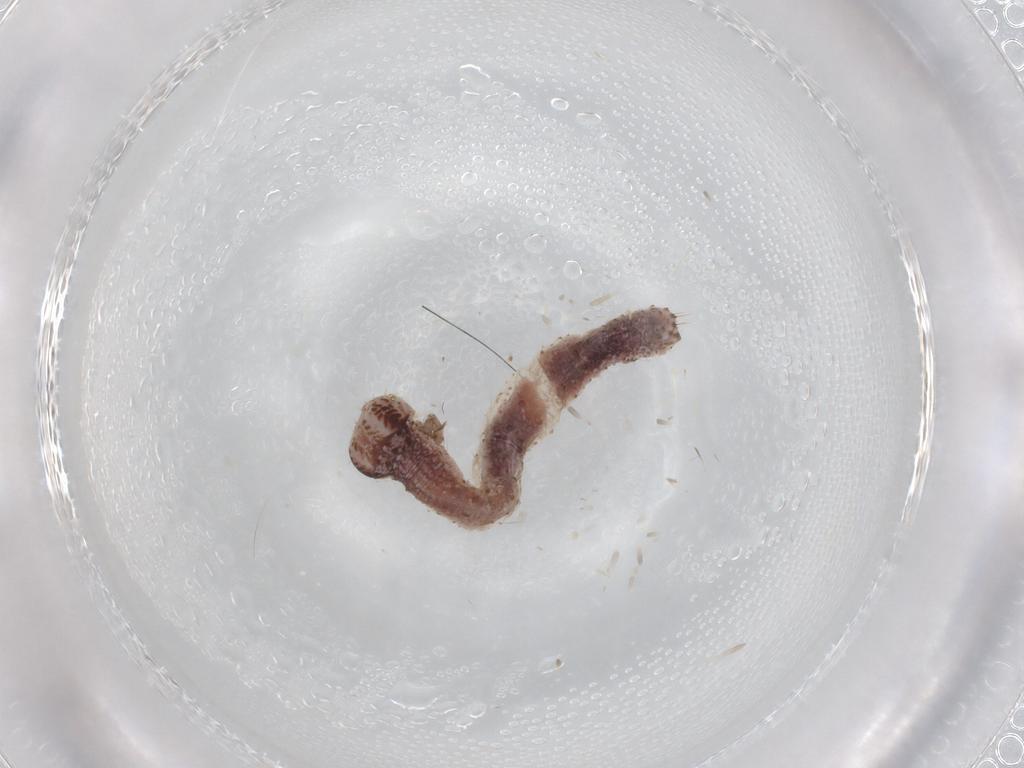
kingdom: Animalia
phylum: Arthropoda
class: Insecta
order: Lepidoptera
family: Geometridae
